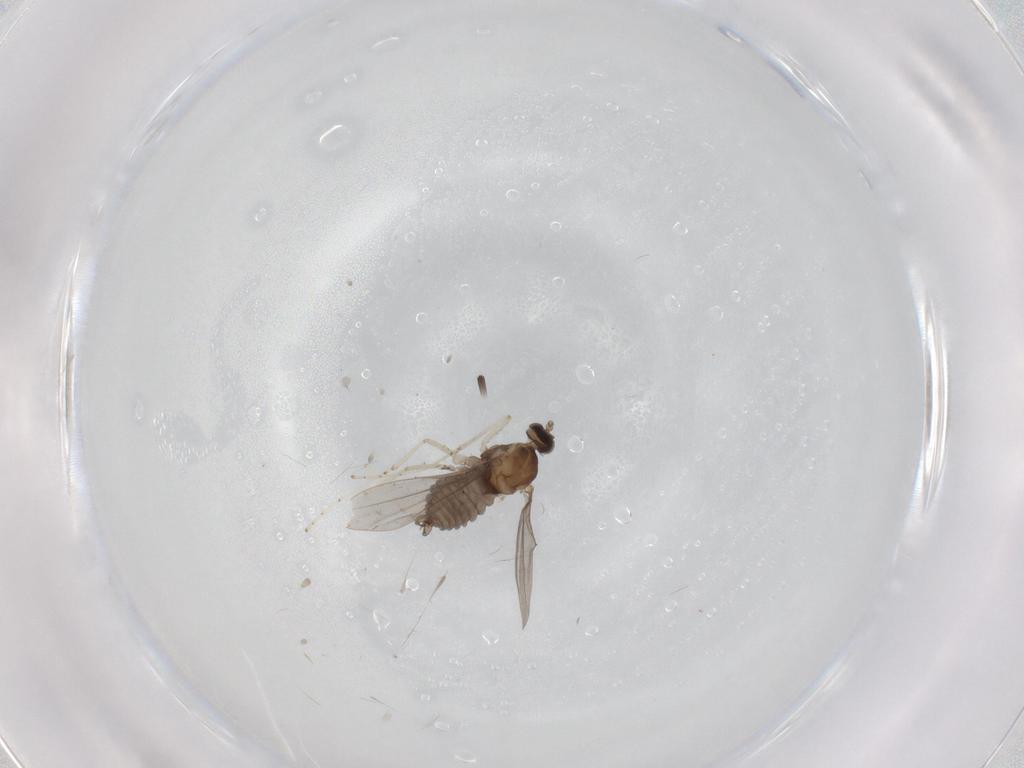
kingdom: Animalia
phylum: Arthropoda
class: Insecta
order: Diptera
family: Cecidomyiidae
